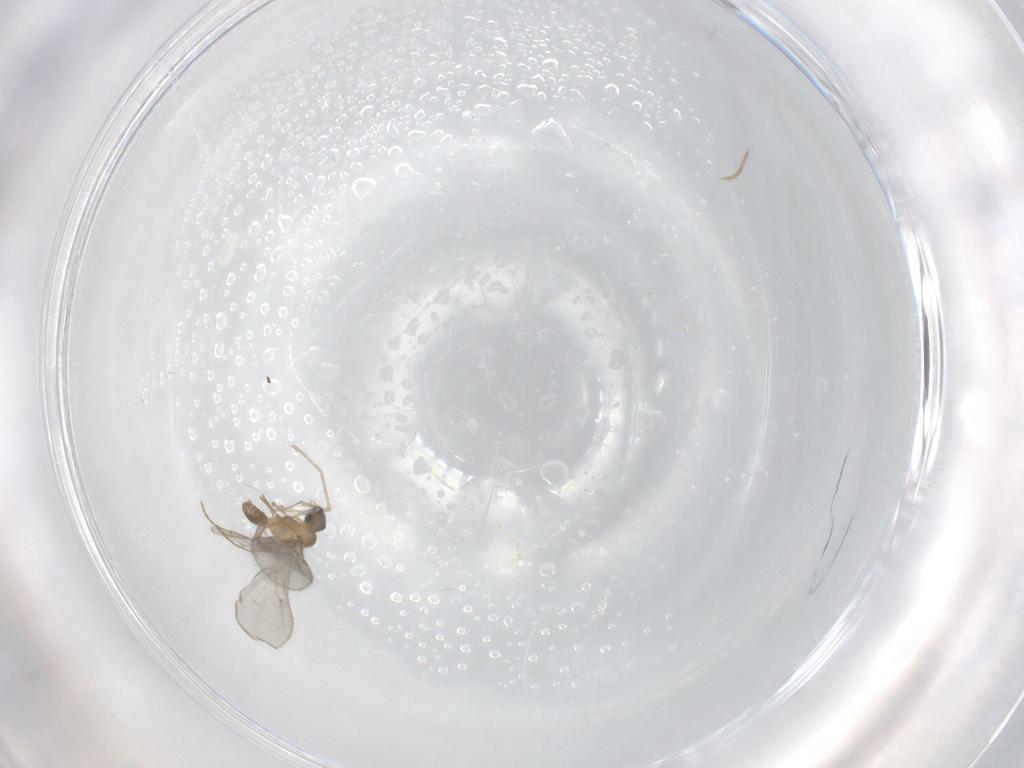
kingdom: Animalia
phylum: Arthropoda
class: Insecta
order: Hymenoptera
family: Formicidae
